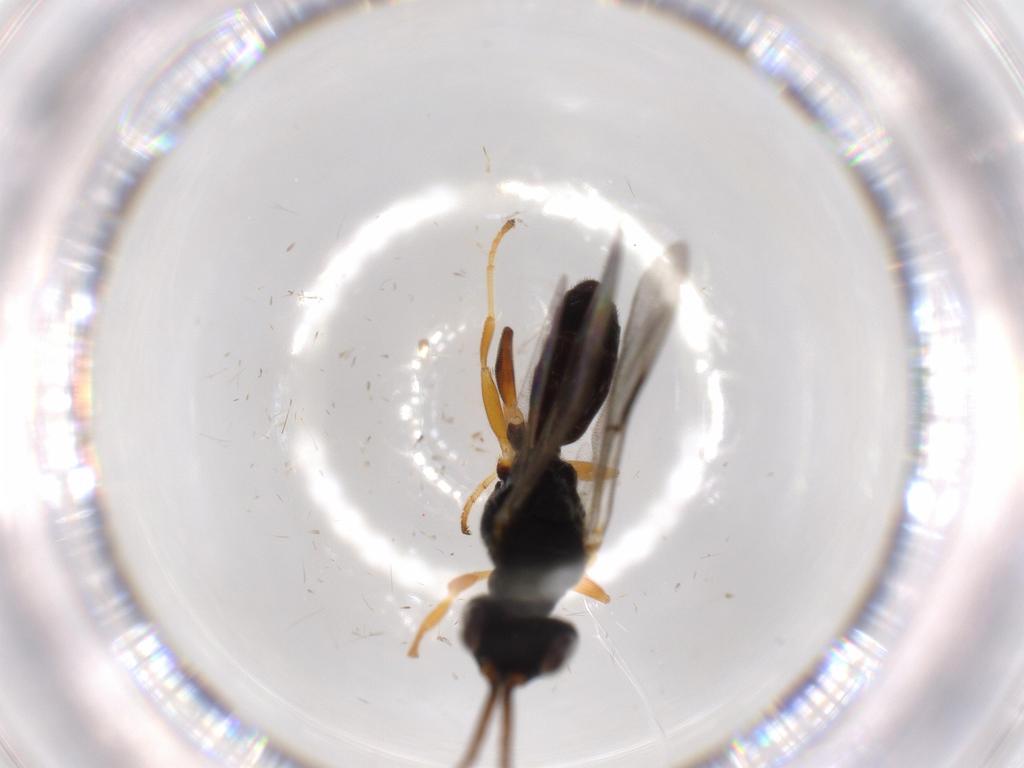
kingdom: Animalia
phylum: Arthropoda
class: Insecta
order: Hymenoptera
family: Dryinidae
